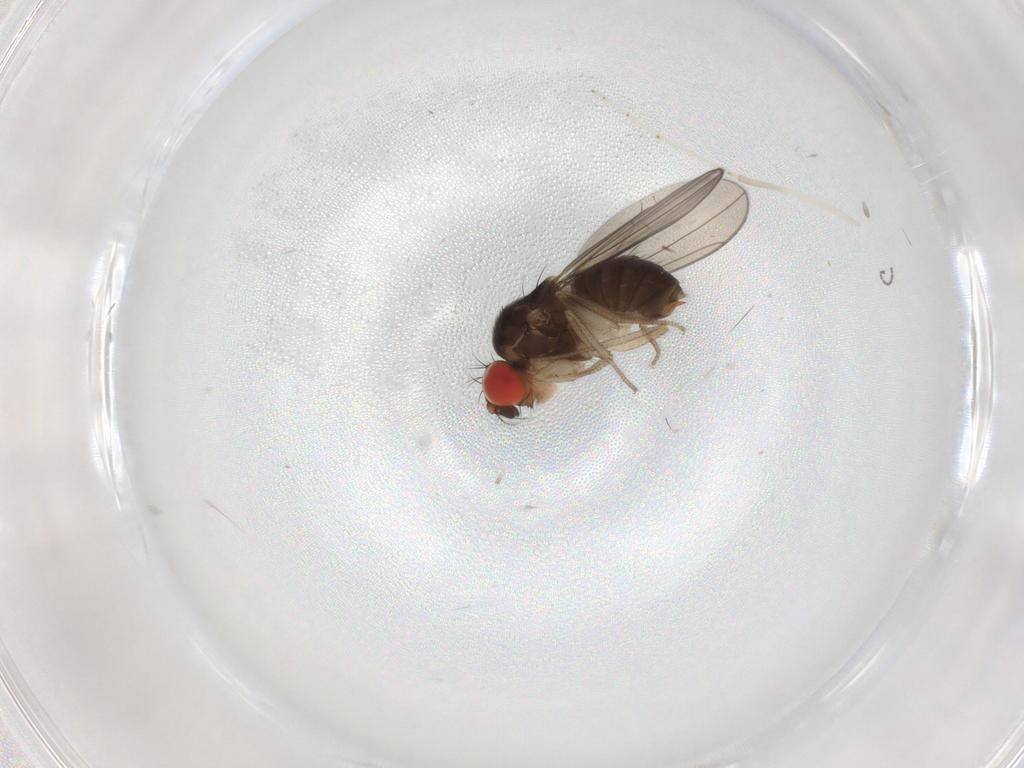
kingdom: Animalia
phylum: Arthropoda
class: Insecta
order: Diptera
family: Drosophilidae
